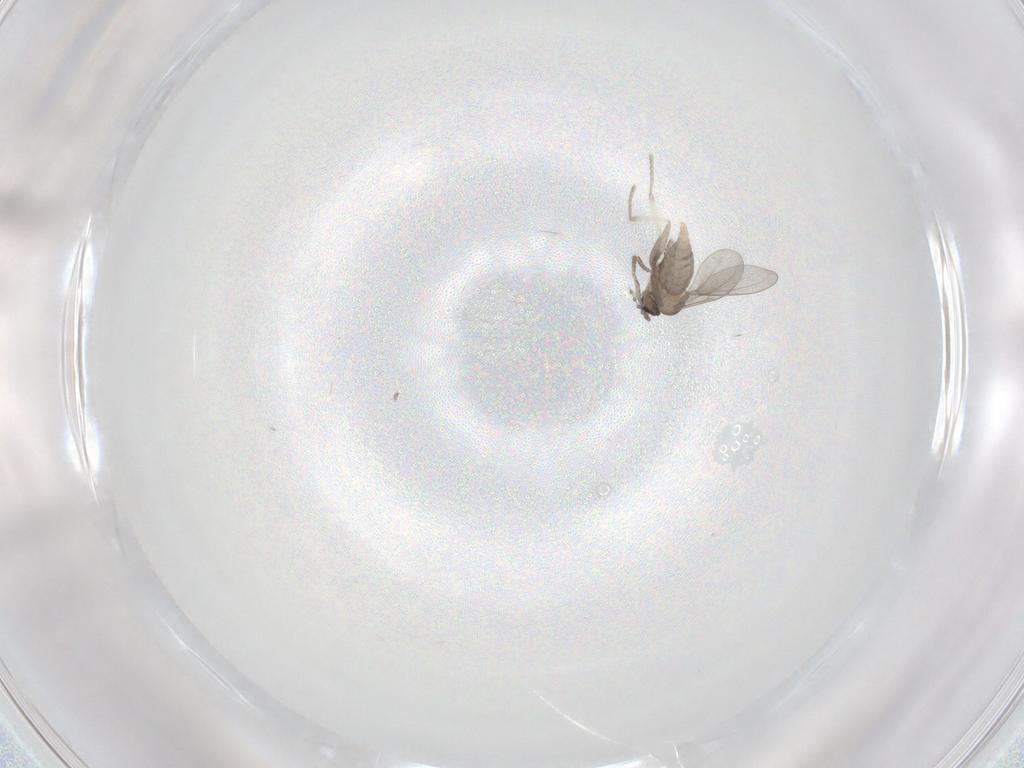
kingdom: Animalia
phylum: Arthropoda
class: Insecta
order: Diptera
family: Cecidomyiidae
